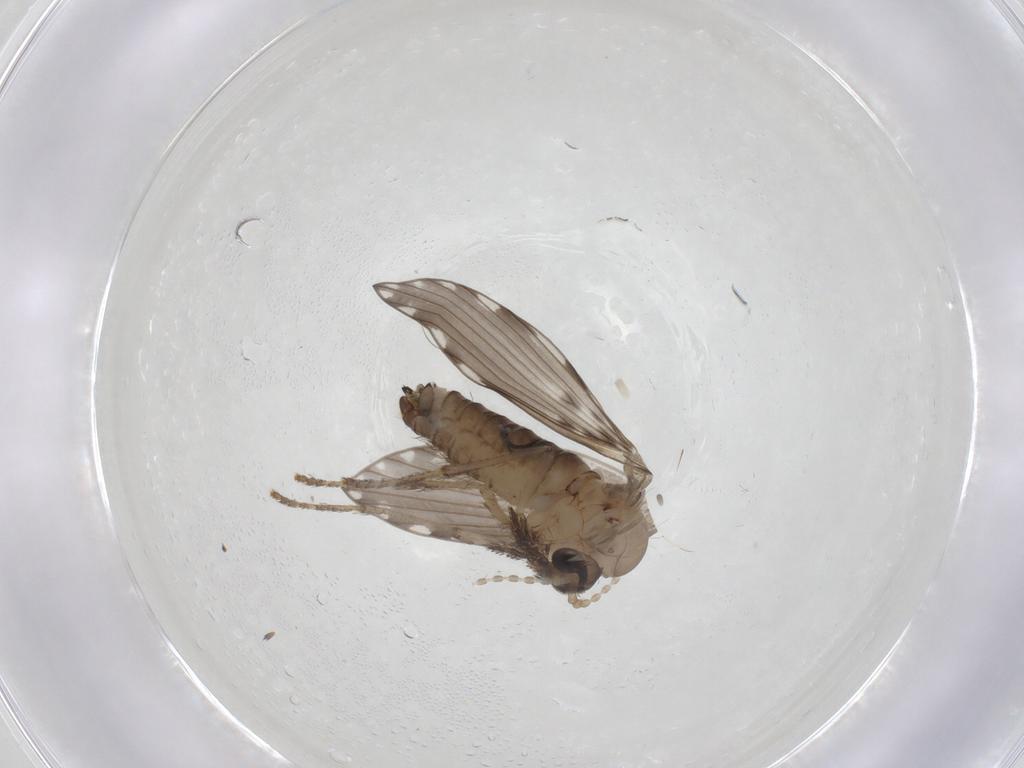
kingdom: Animalia
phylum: Arthropoda
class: Insecta
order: Diptera
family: Psychodidae
